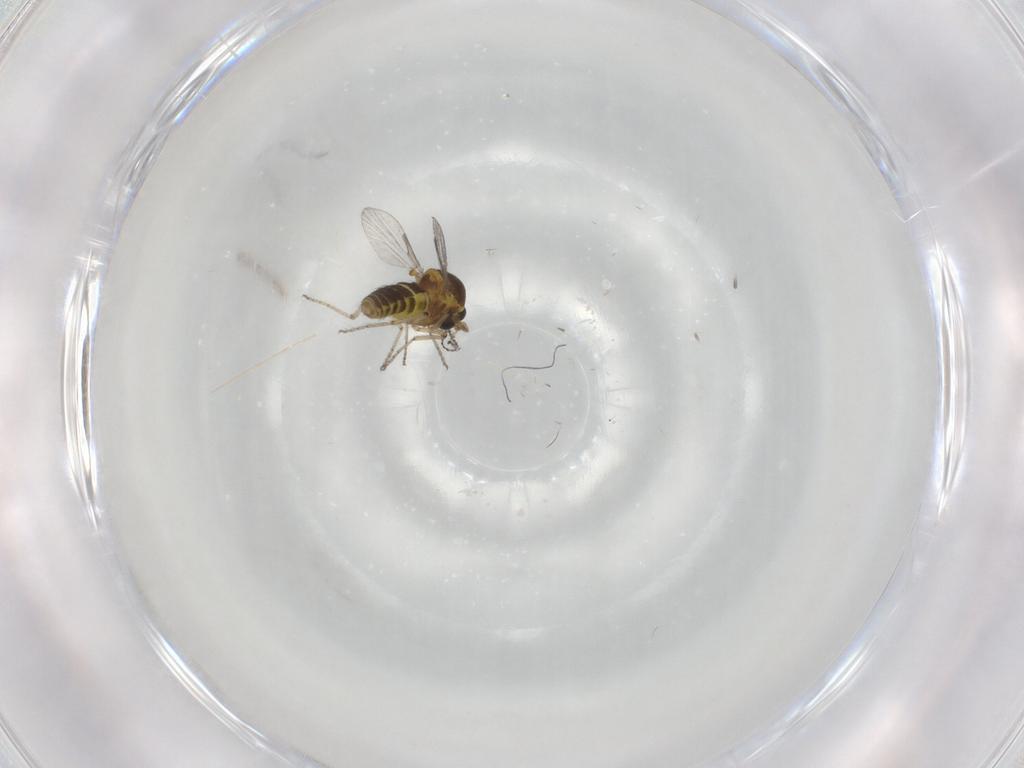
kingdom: Animalia
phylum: Arthropoda
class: Insecta
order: Diptera
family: Ceratopogonidae
